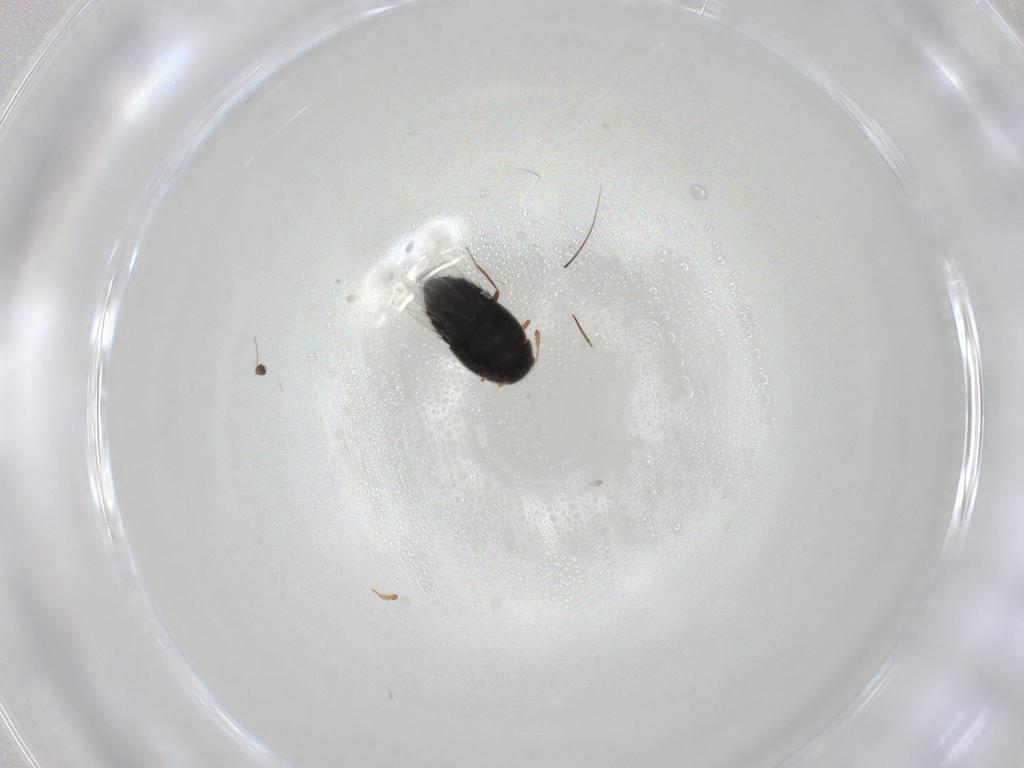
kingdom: Animalia
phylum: Arthropoda
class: Insecta
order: Coleoptera
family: Staphylinidae
